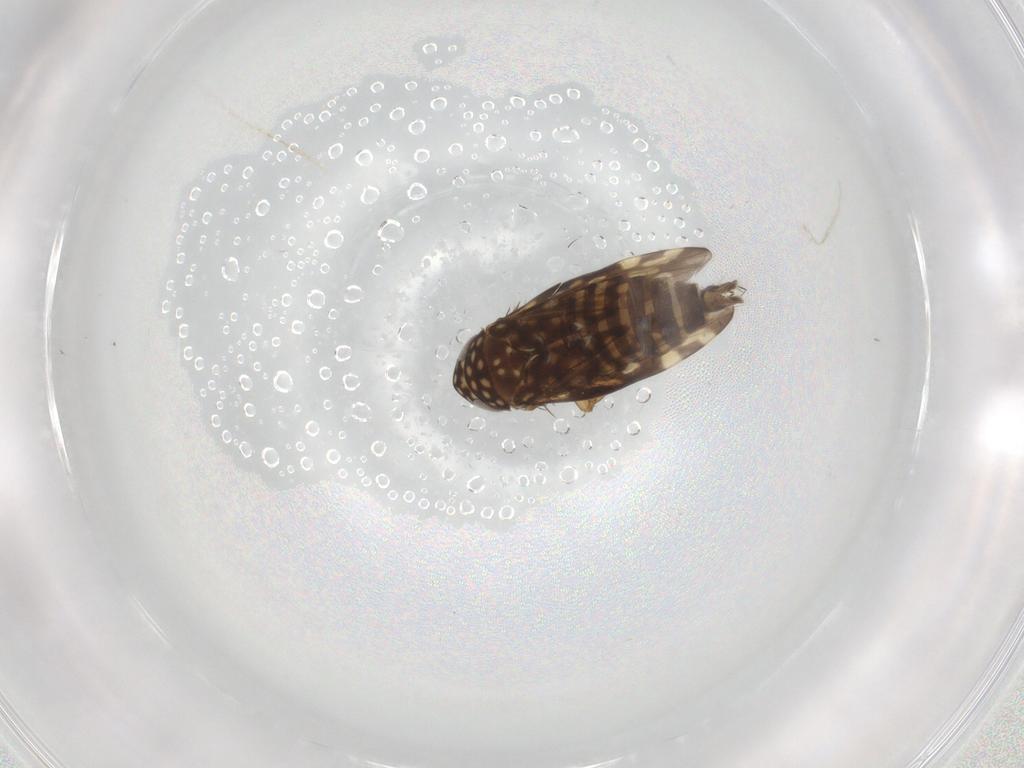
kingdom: Animalia
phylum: Arthropoda
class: Insecta
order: Hemiptera
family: Cicadellidae
